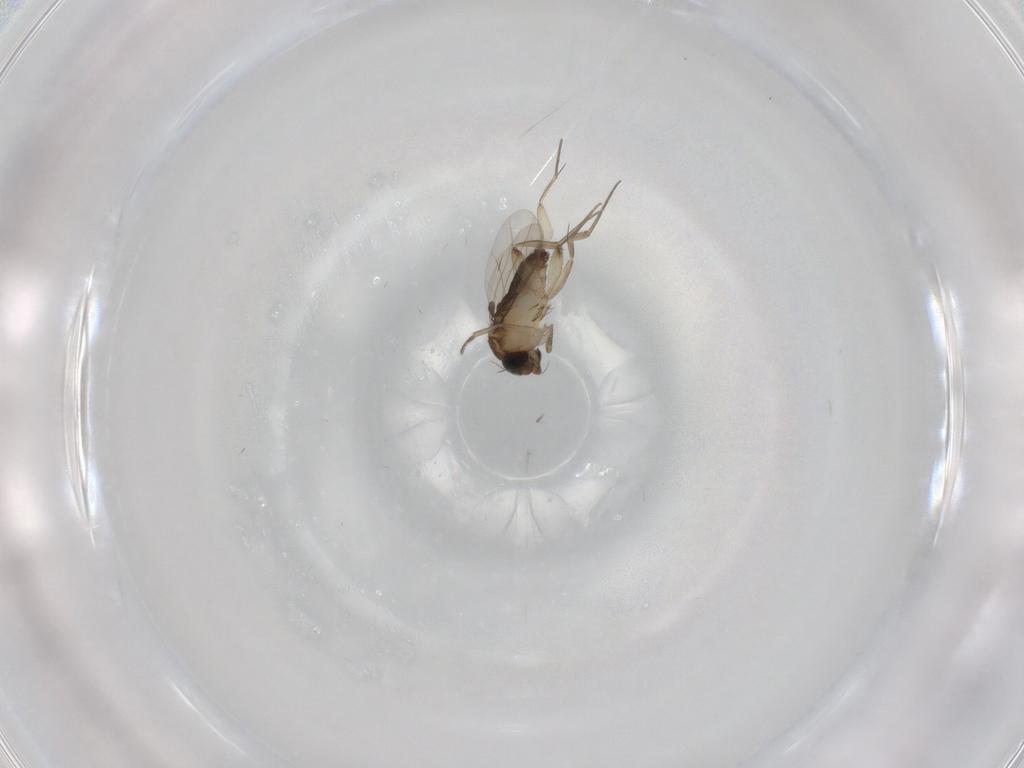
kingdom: Animalia
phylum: Arthropoda
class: Insecta
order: Diptera
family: Phoridae
